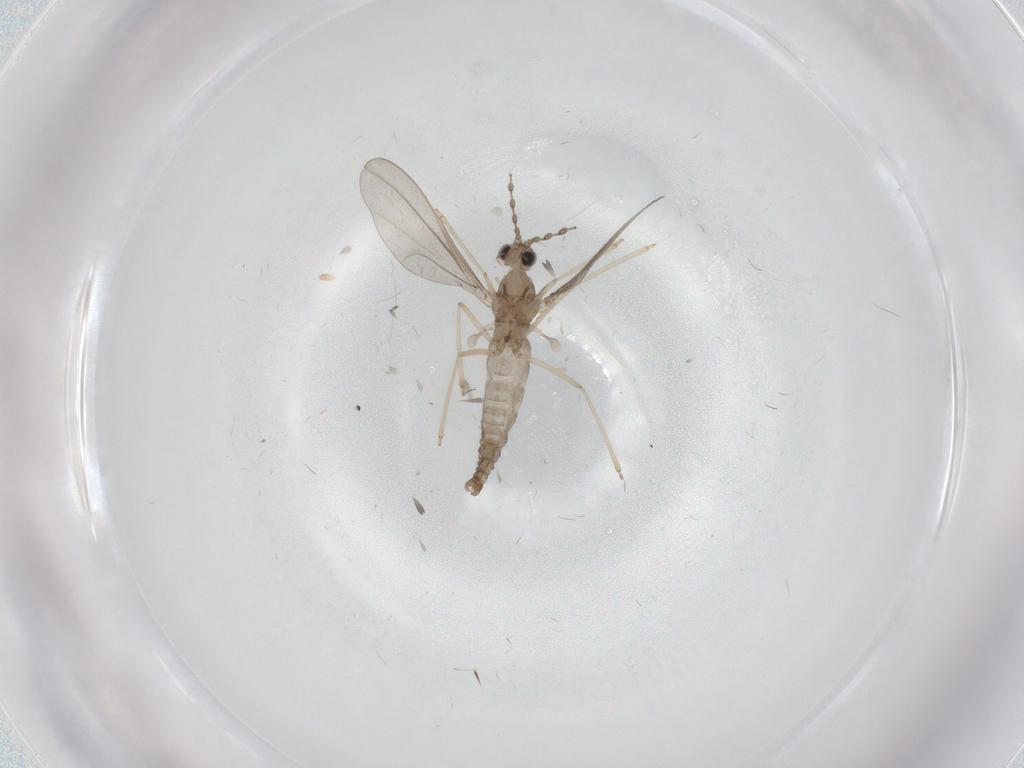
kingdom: Animalia
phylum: Arthropoda
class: Insecta
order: Diptera
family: Cecidomyiidae
